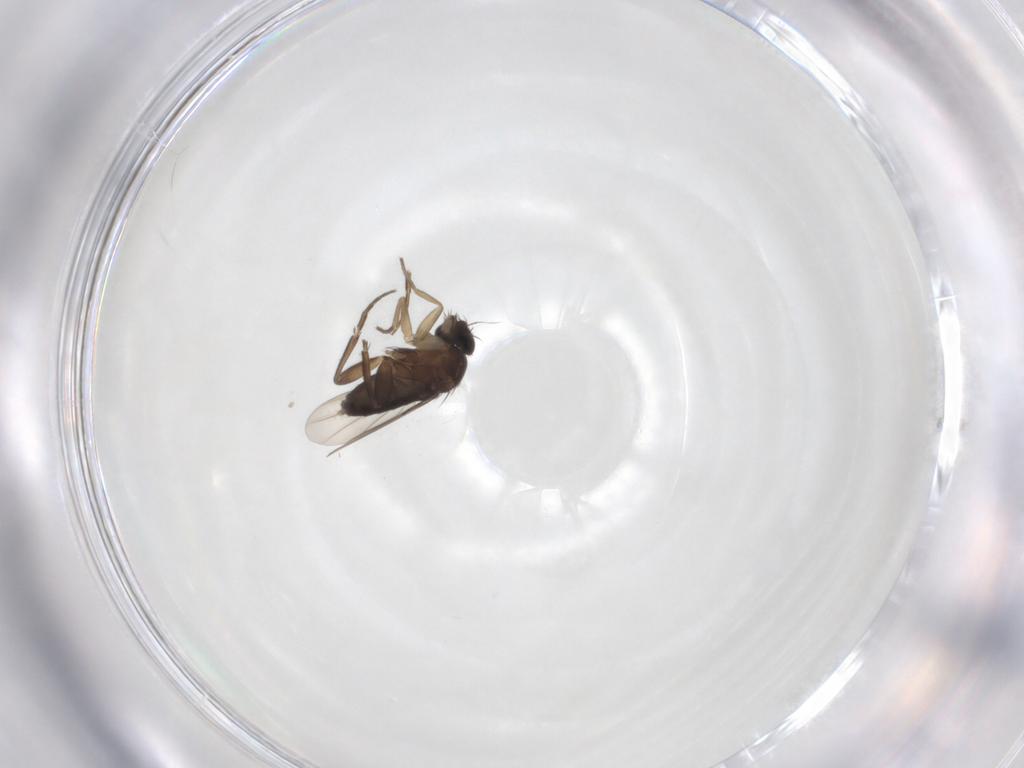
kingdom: Animalia
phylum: Arthropoda
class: Insecta
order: Diptera
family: Phoridae
